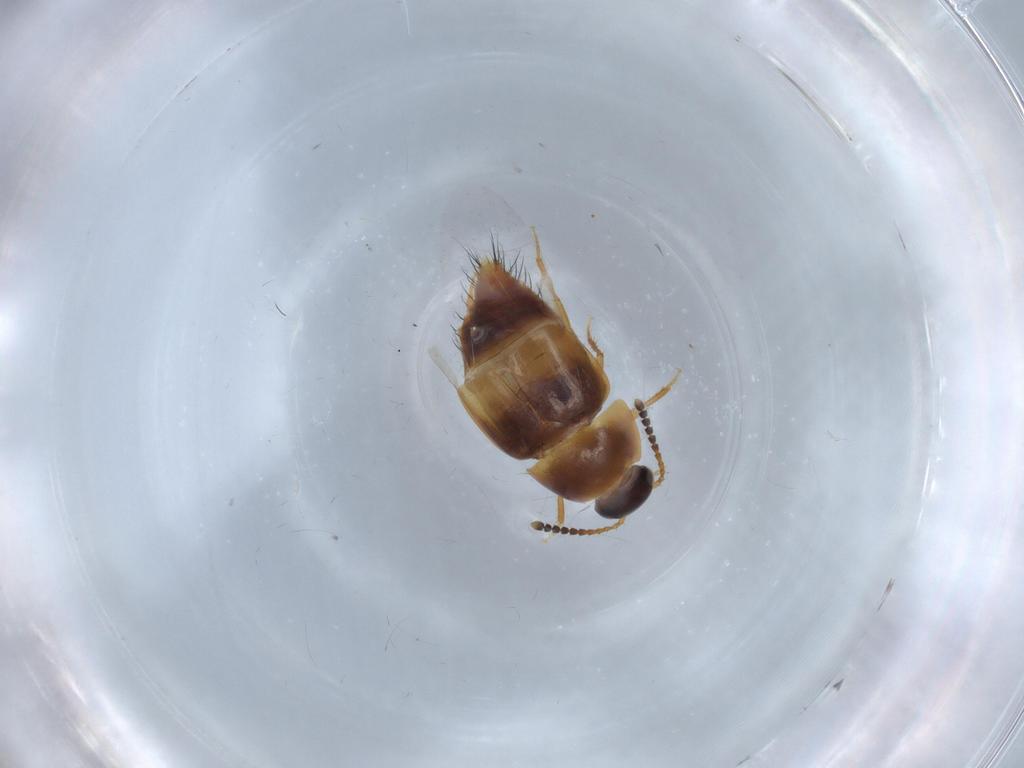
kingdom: Animalia
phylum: Arthropoda
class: Insecta
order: Coleoptera
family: Staphylinidae
